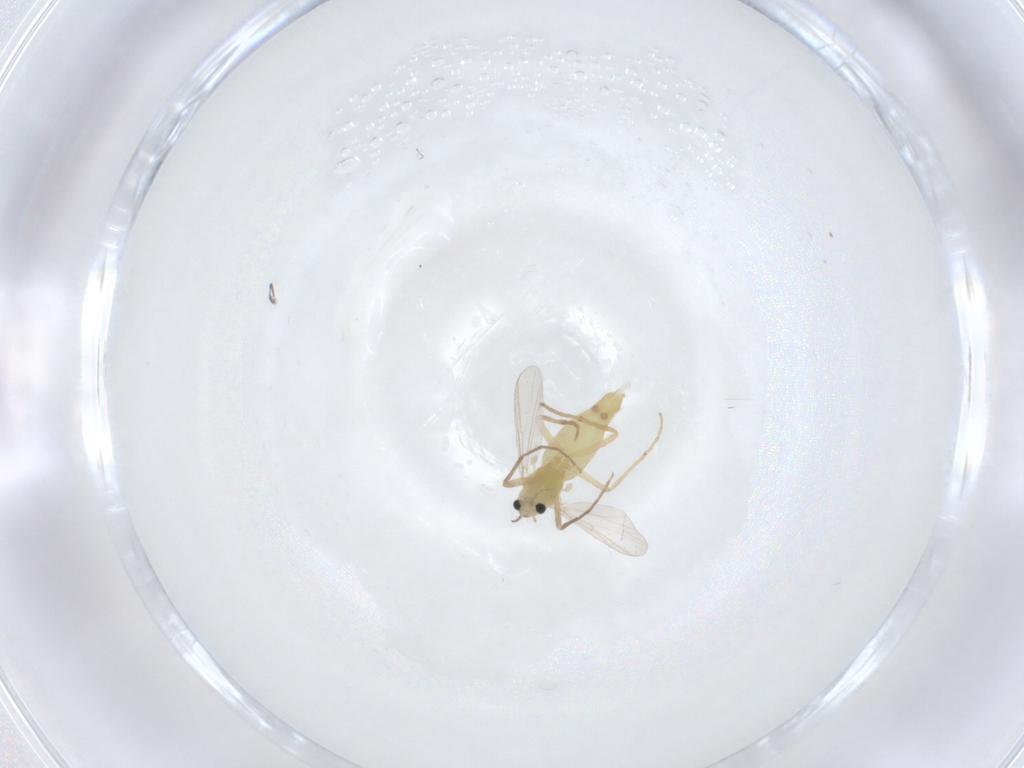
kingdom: Animalia
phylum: Arthropoda
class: Insecta
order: Diptera
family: Chironomidae
